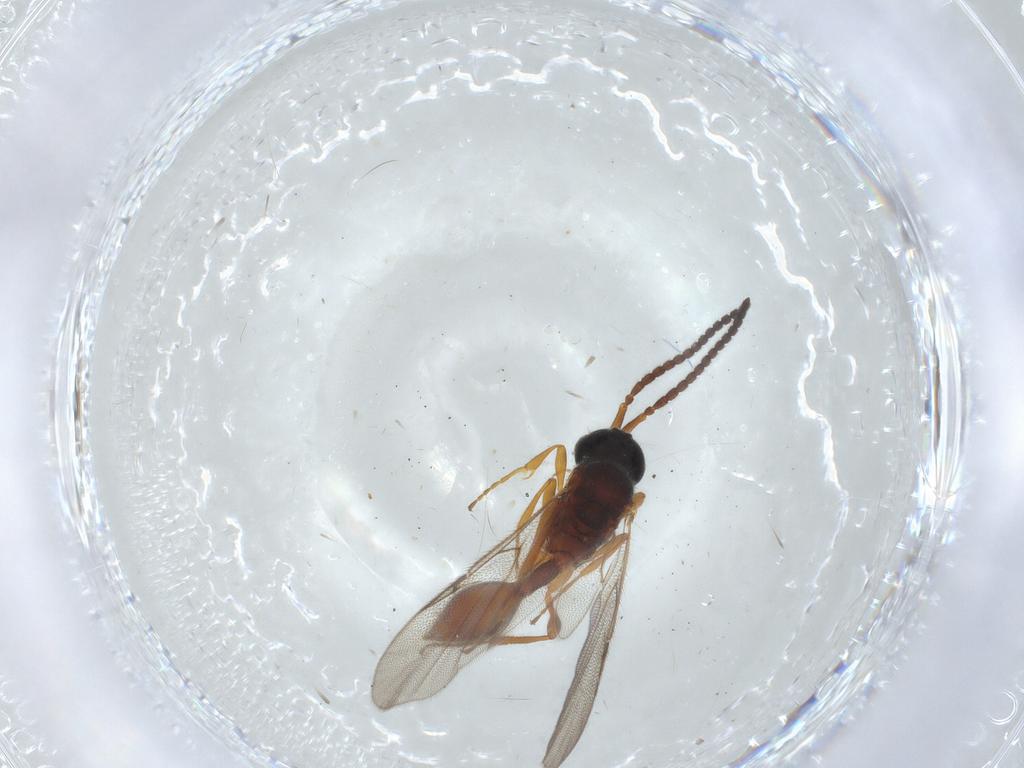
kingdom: Animalia
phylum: Arthropoda
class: Insecta
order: Hymenoptera
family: Diapriidae
